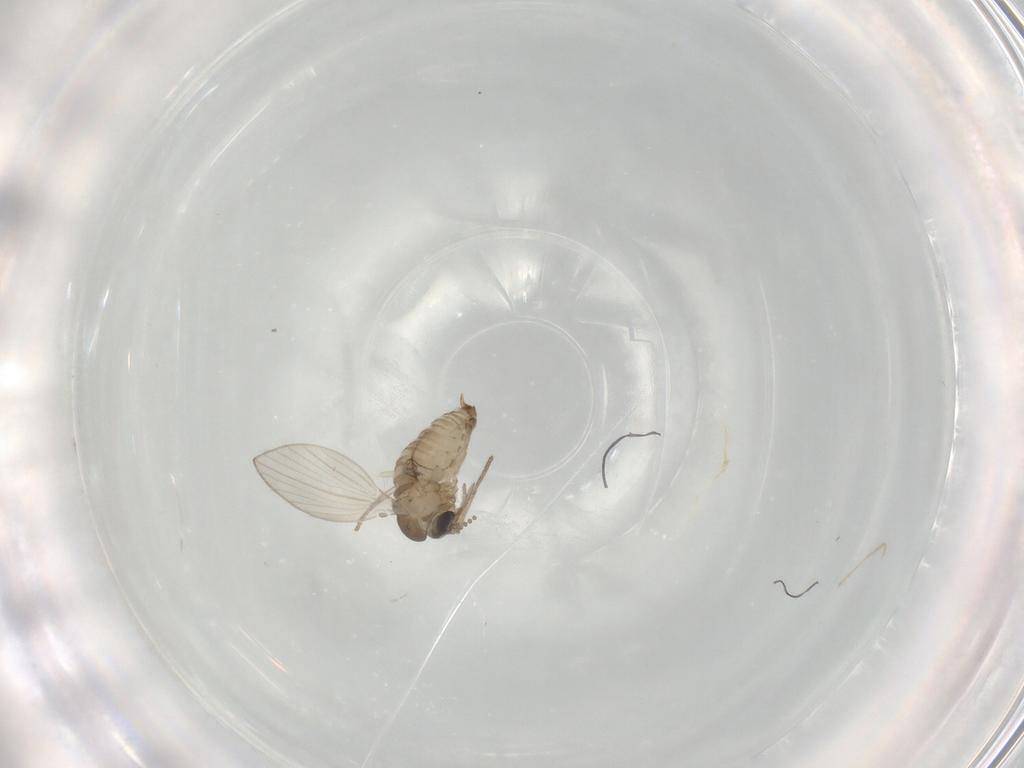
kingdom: Animalia
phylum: Arthropoda
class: Insecta
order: Diptera
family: Psychodidae
